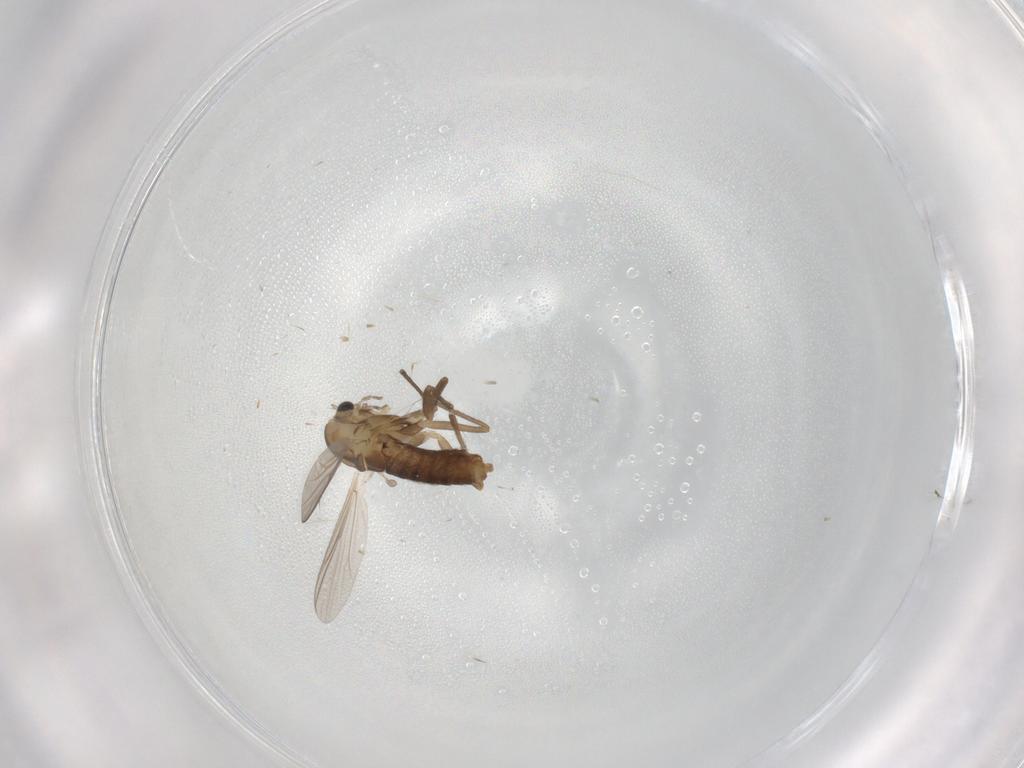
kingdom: Animalia
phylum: Arthropoda
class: Insecta
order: Diptera
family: Chironomidae
